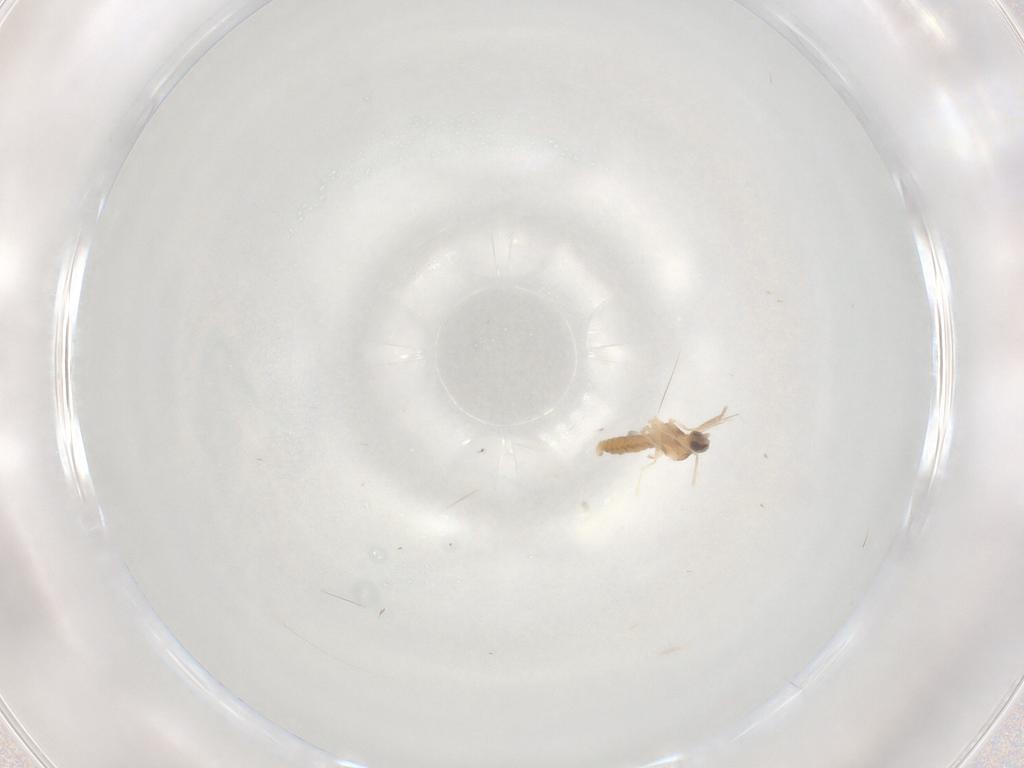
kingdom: Animalia
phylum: Arthropoda
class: Insecta
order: Diptera
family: Cecidomyiidae
